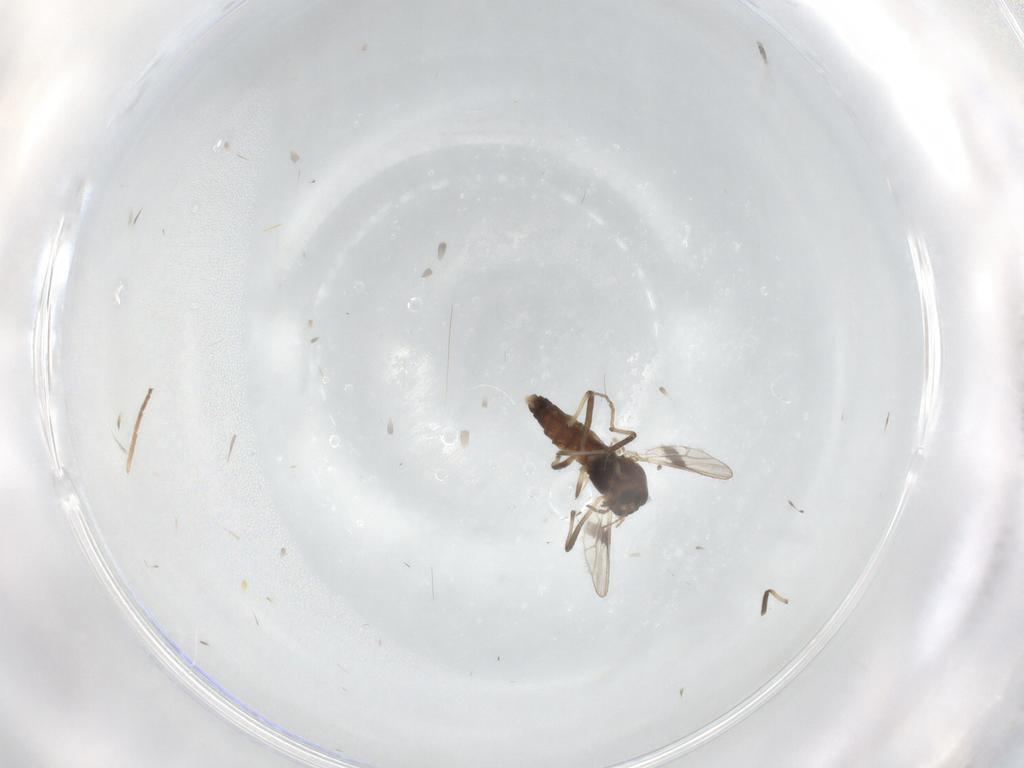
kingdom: Animalia
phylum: Arthropoda
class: Insecta
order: Diptera
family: Chironomidae
